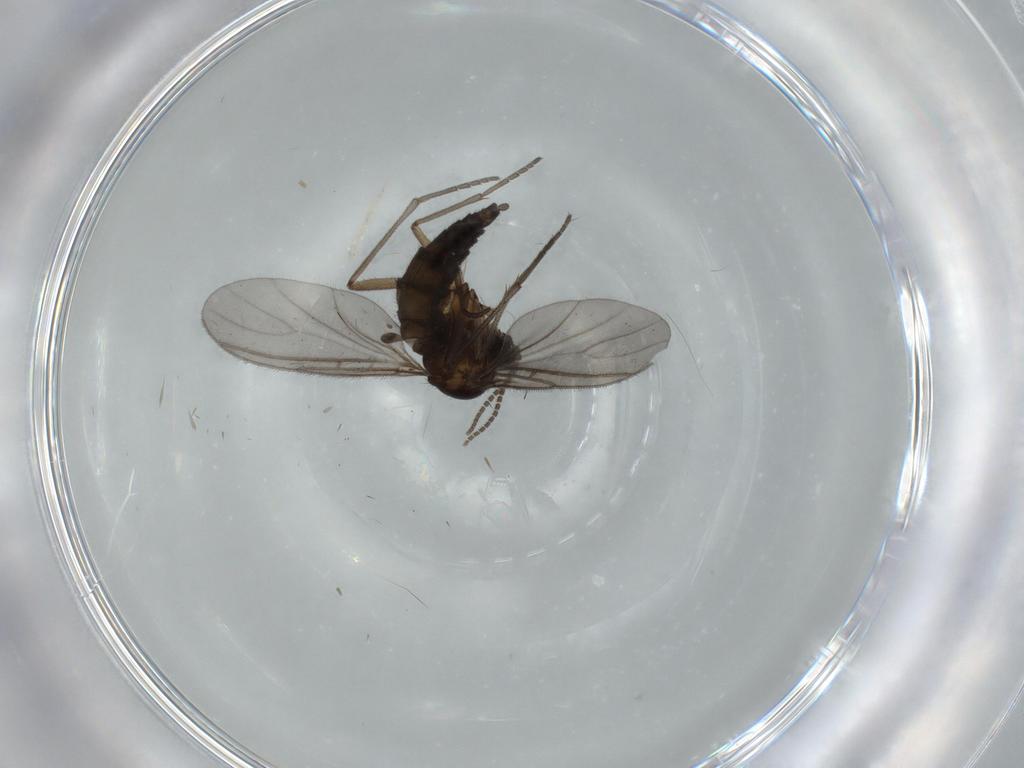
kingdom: Animalia
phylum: Arthropoda
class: Insecta
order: Diptera
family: Sciaridae
